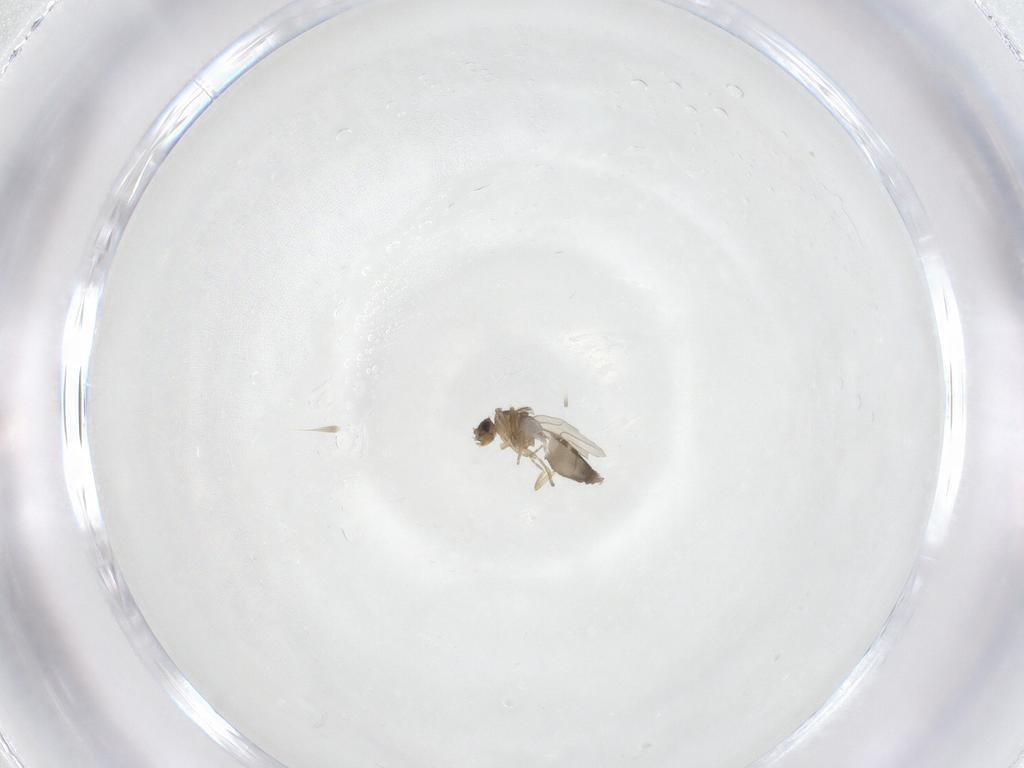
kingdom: Animalia
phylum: Arthropoda
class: Insecta
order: Diptera
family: Phoridae
